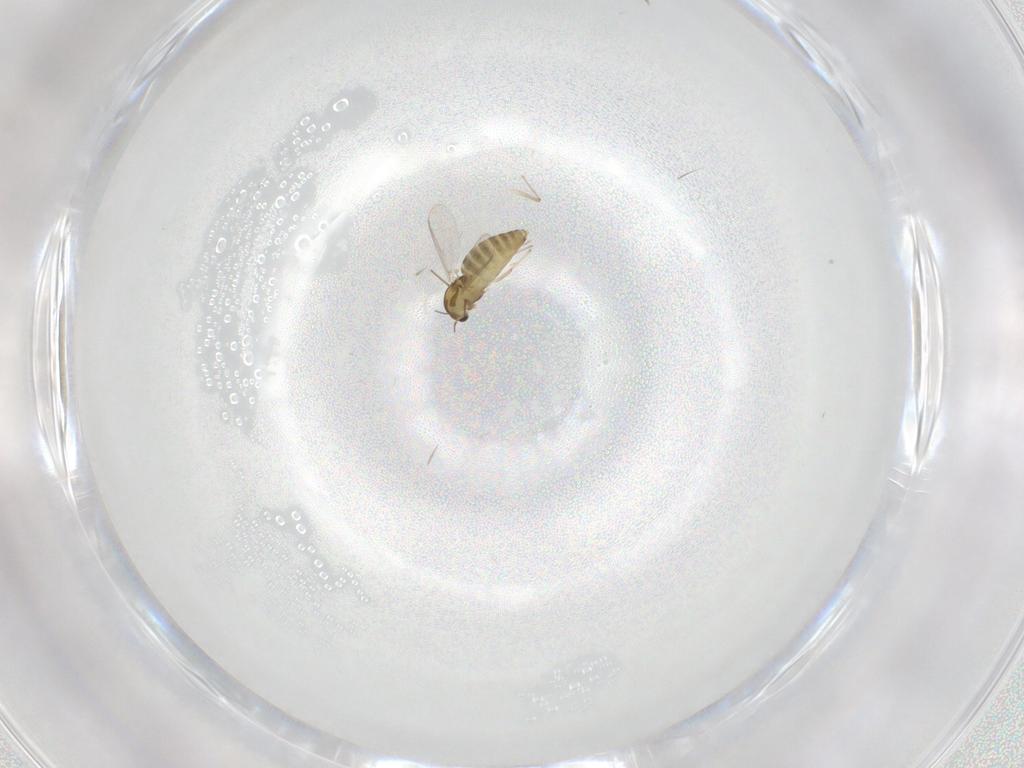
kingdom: Animalia
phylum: Arthropoda
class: Insecta
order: Diptera
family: Chironomidae
